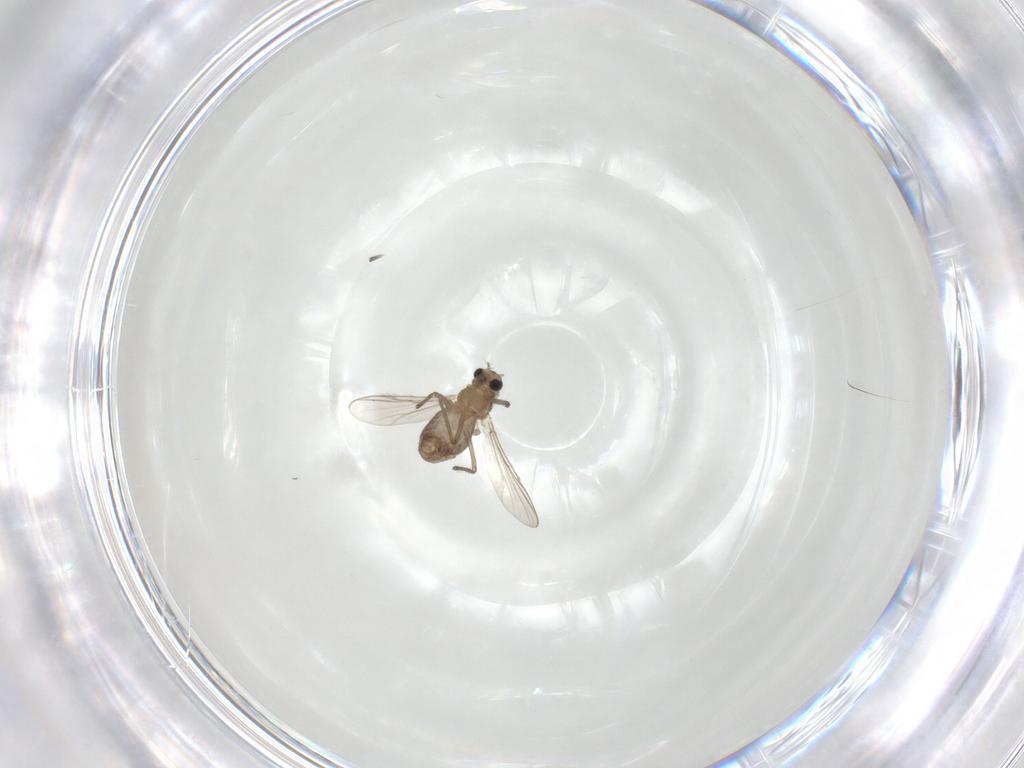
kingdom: Animalia
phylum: Arthropoda
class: Insecta
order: Diptera
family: Chironomidae
